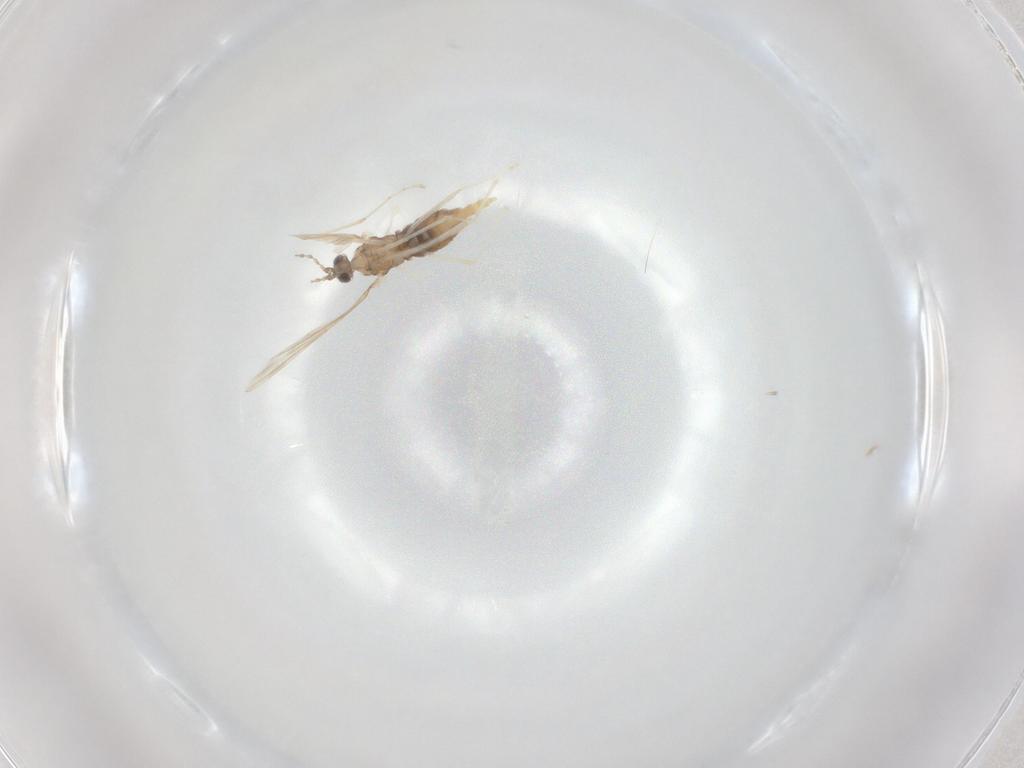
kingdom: Animalia
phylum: Arthropoda
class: Insecta
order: Diptera
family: Cecidomyiidae
